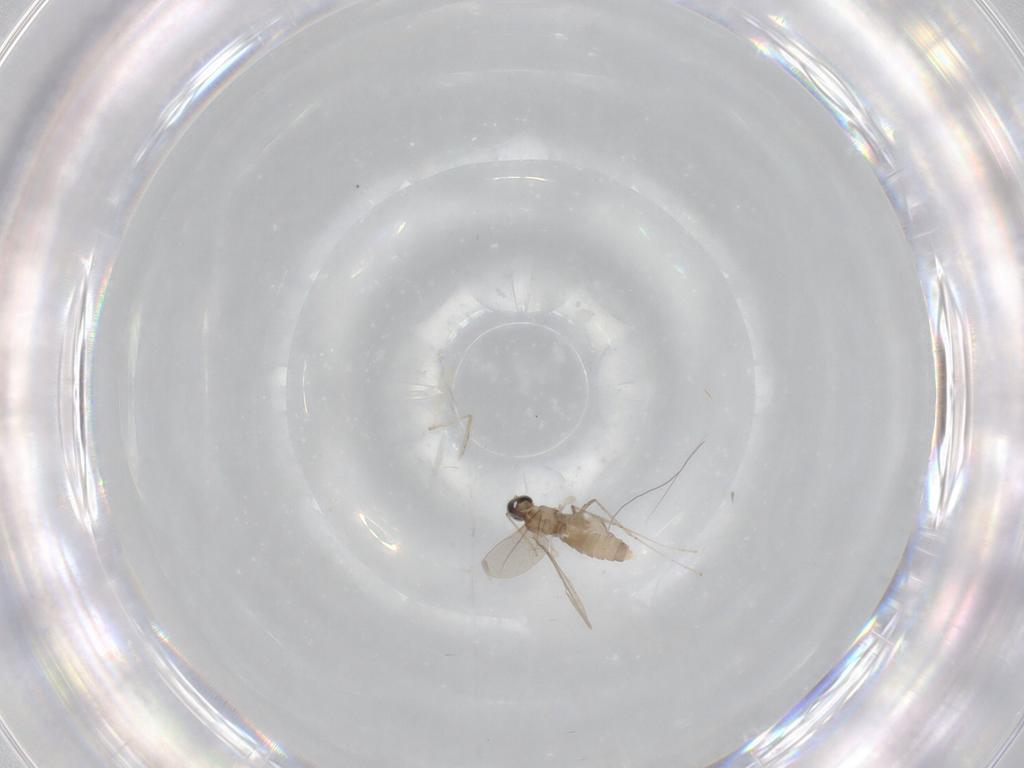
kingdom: Animalia
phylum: Arthropoda
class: Insecta
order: Diptera
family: Cecidomyiidae
